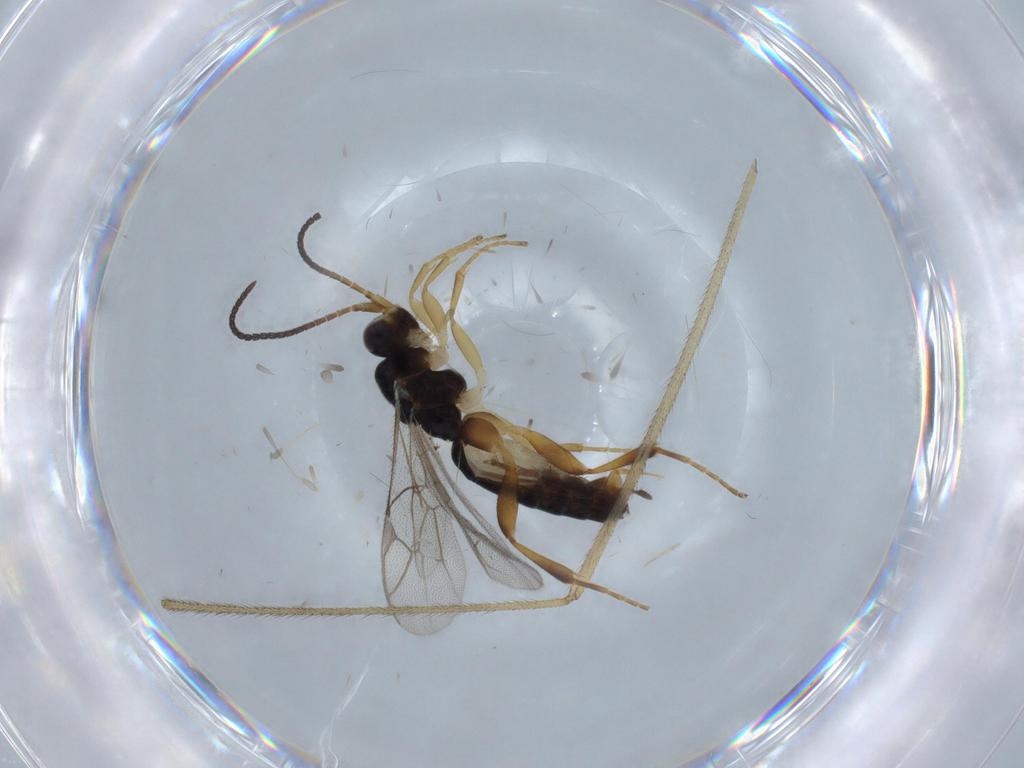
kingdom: Animalia
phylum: Arthropoda
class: Insecta
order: Hymenoptera
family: Ichneumonidae
